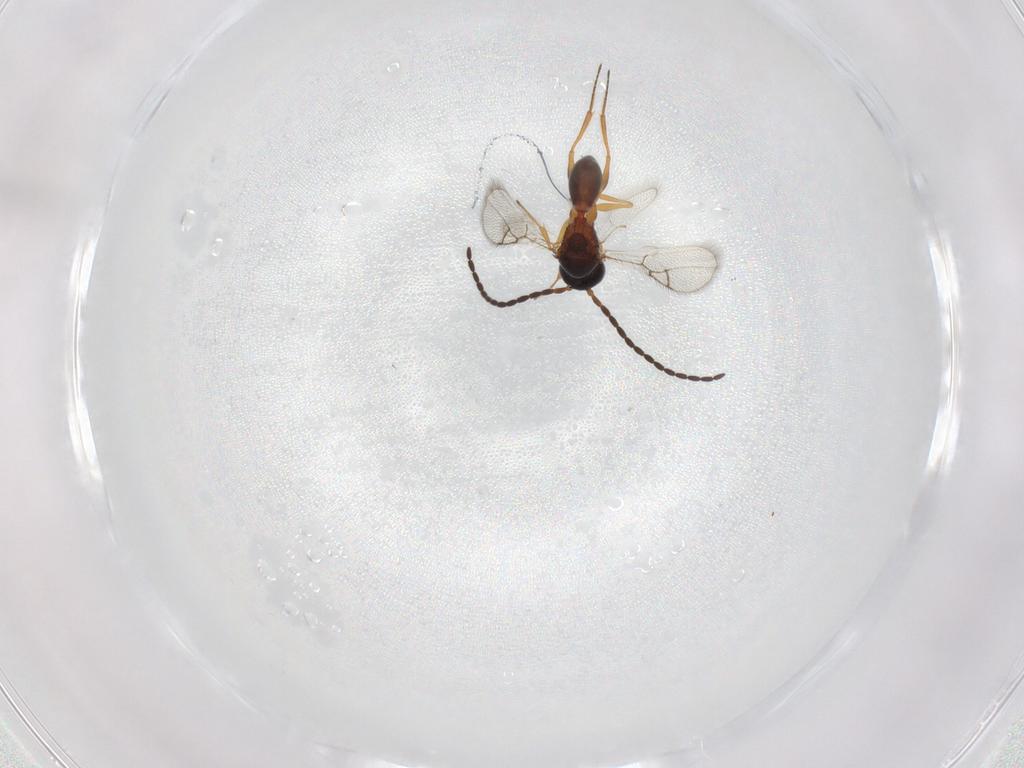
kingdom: Animalia
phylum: Arthropoda
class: Insecta
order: Hymenoptera
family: Figitidae
